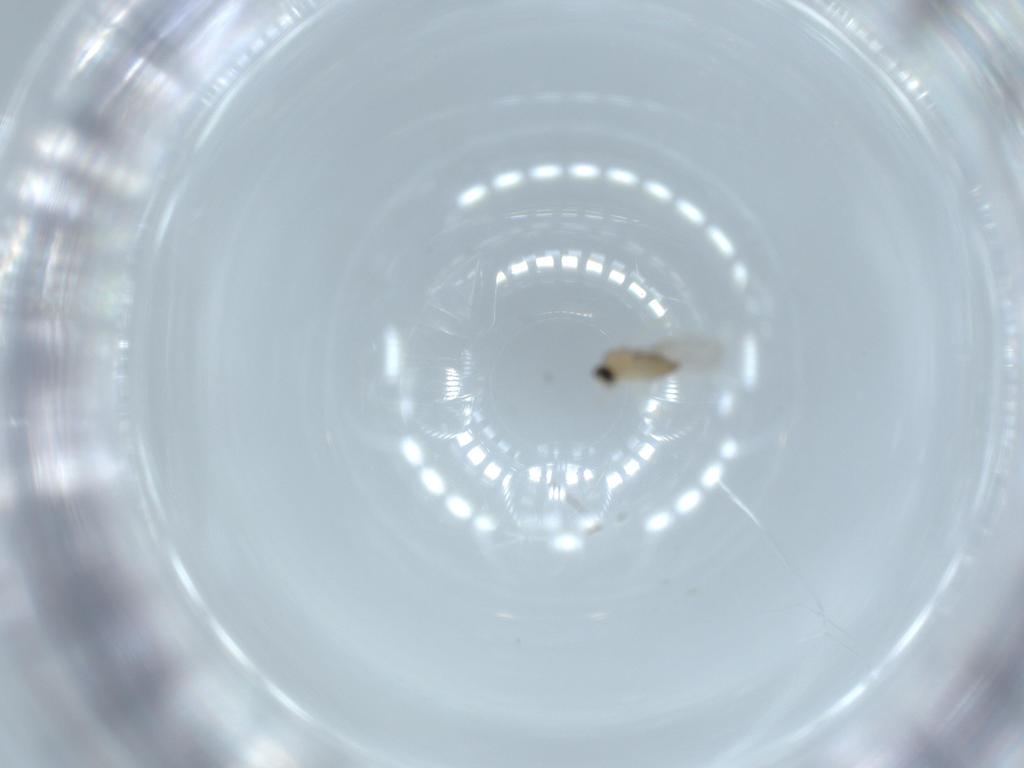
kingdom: Animalia
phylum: Arthropoda
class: Insecta
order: Diptera
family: Cecidomyiidae
